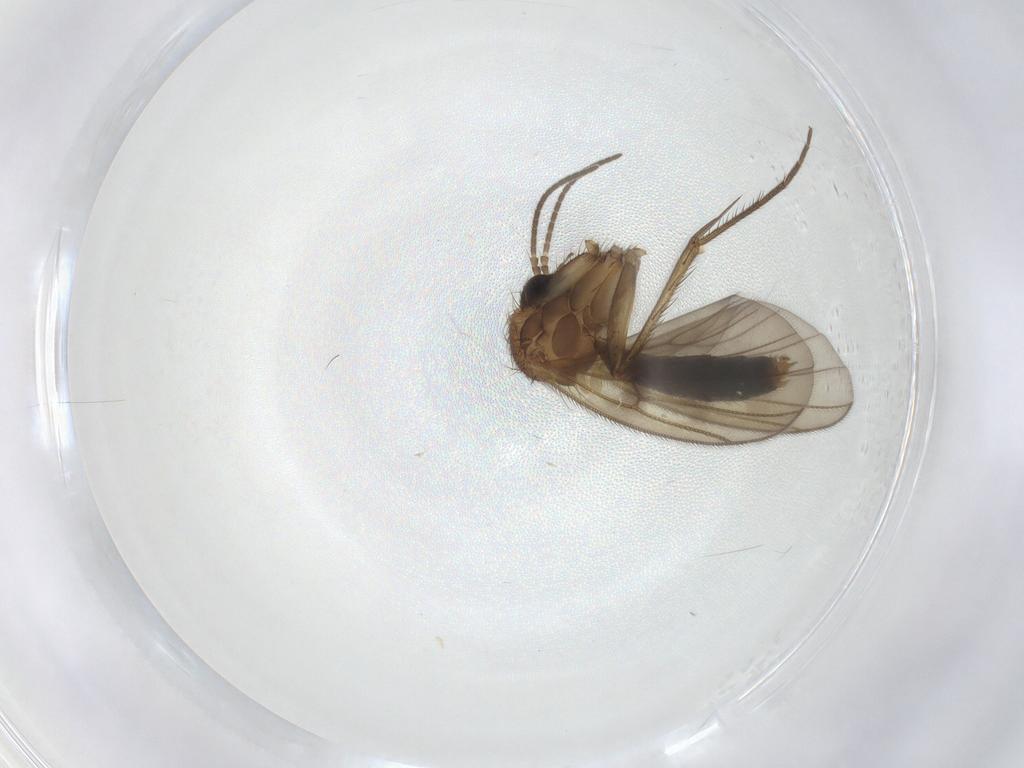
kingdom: Animalia
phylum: Arthropoda
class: Insecta
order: Diptera
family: Mycetophilidae
